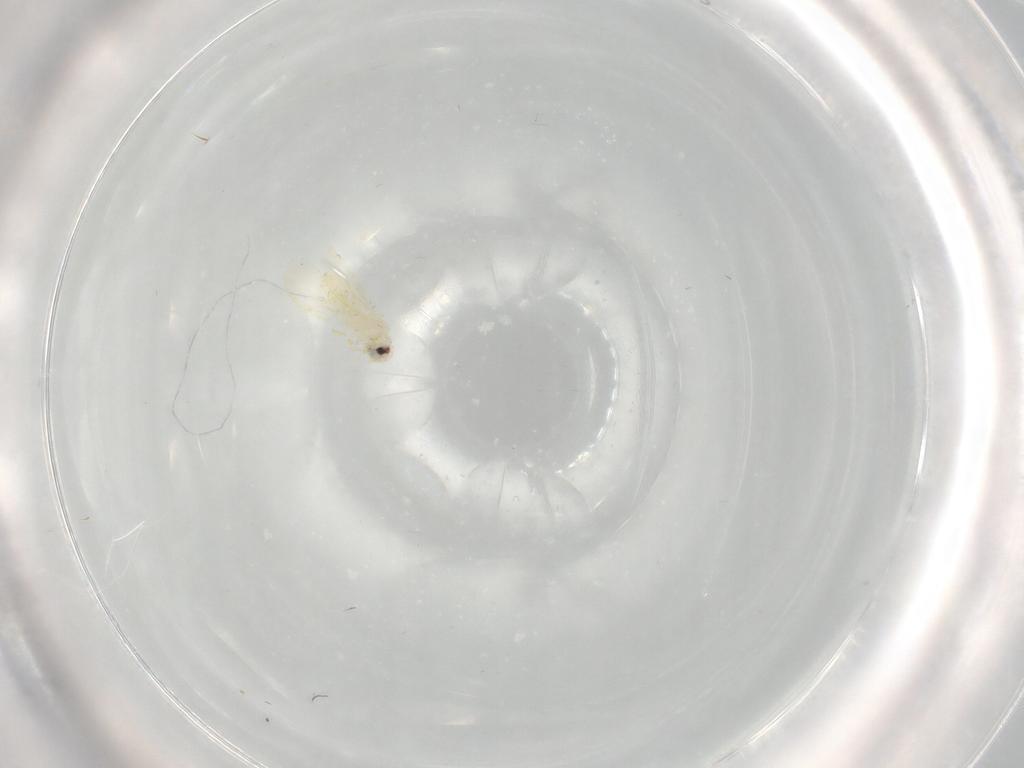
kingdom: Animalia
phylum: Arthropoda
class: Insecta
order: Hemiptera
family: Aleyrodidae
